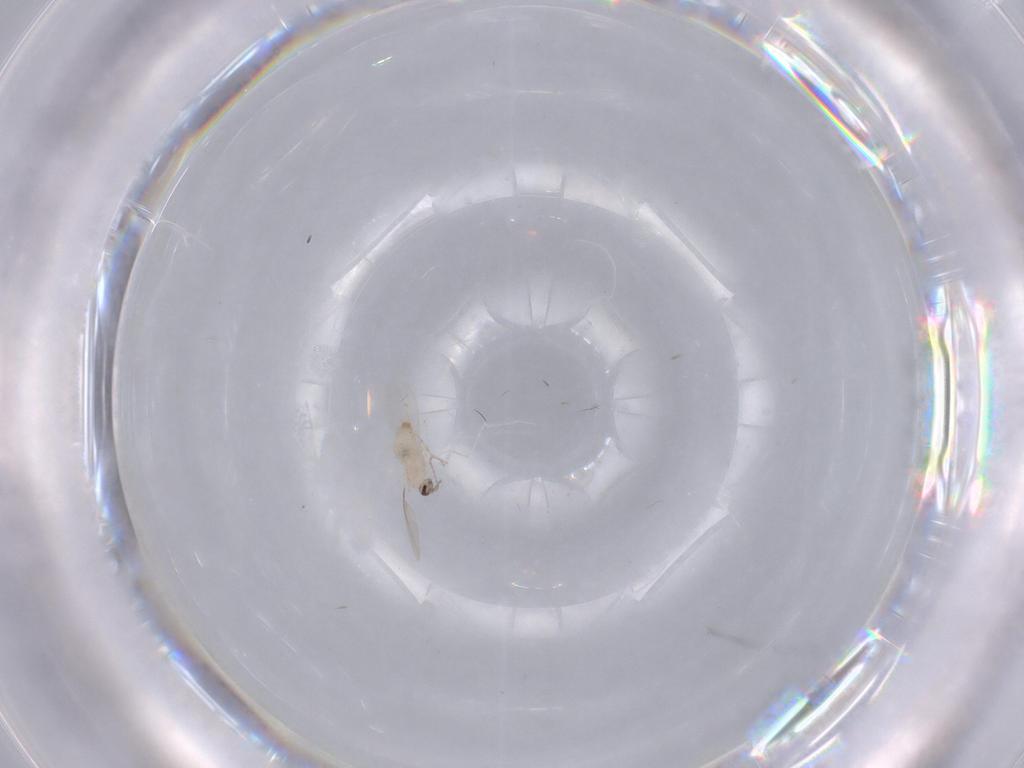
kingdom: Animalia
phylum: Arthropoda
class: Insecta
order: Diptera
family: Cecidomyiidae
